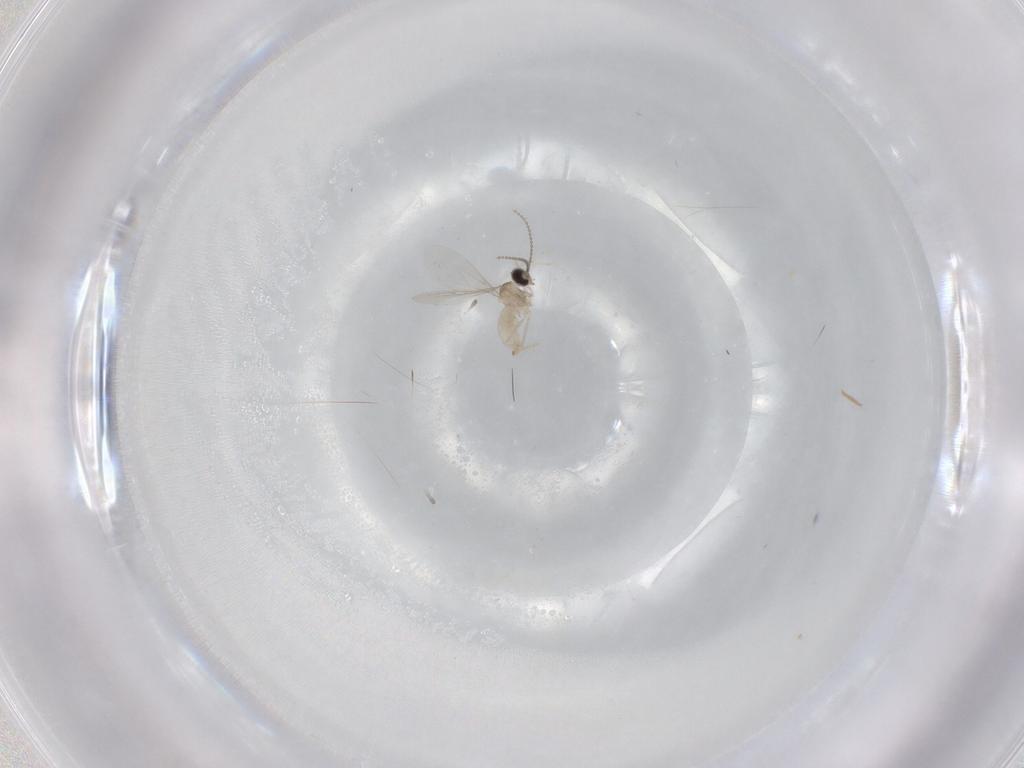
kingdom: Animalia
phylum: Arthropoda
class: Insecta
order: Diptera
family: Cecidomyiidae
